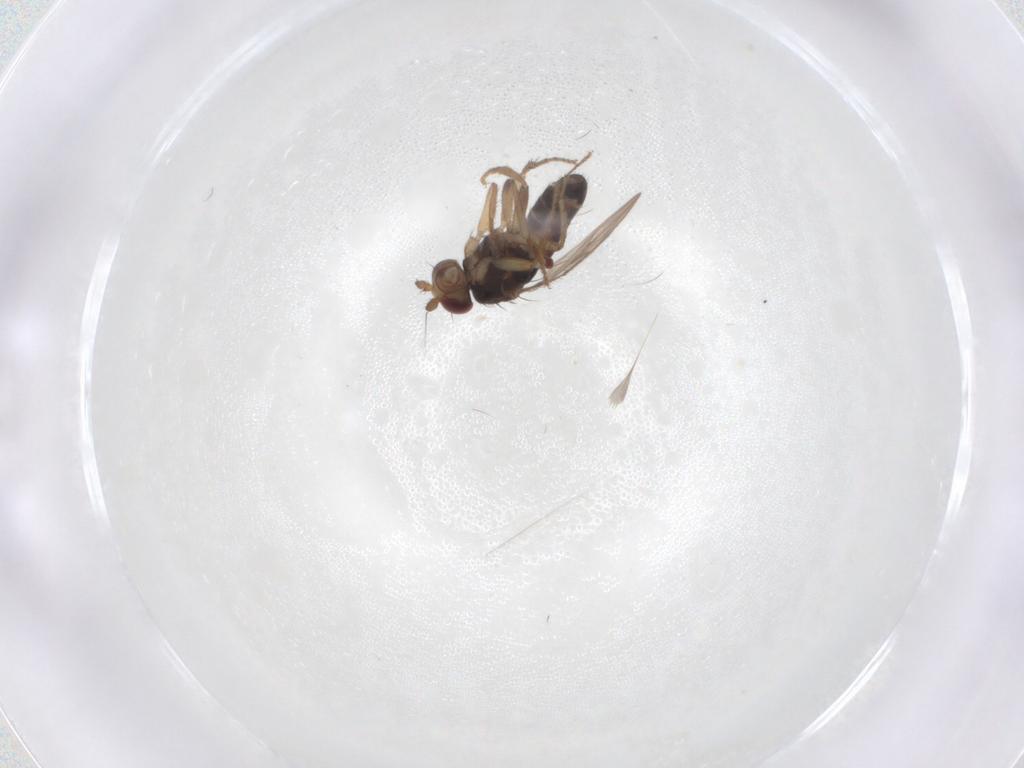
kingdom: Animalia
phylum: Arthropoda
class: Insecta
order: Diptera
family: Sphaeroceridae
